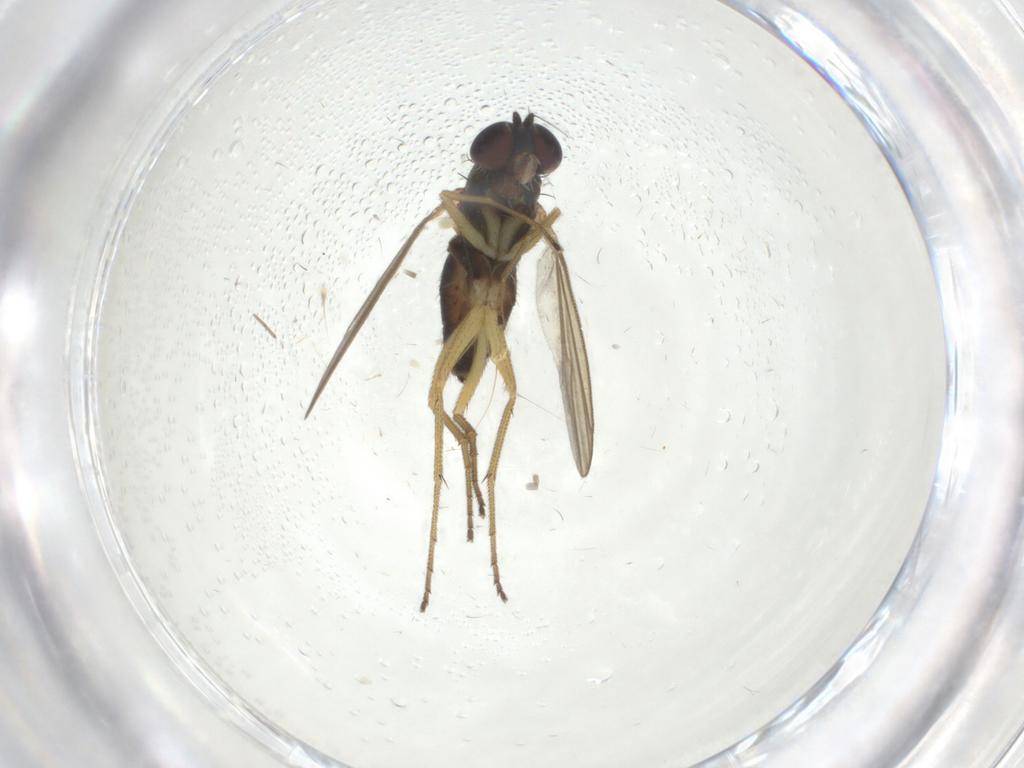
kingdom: Animalia
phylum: Arthropoda
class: Insecta
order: Diptera
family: Dolichopodidae
